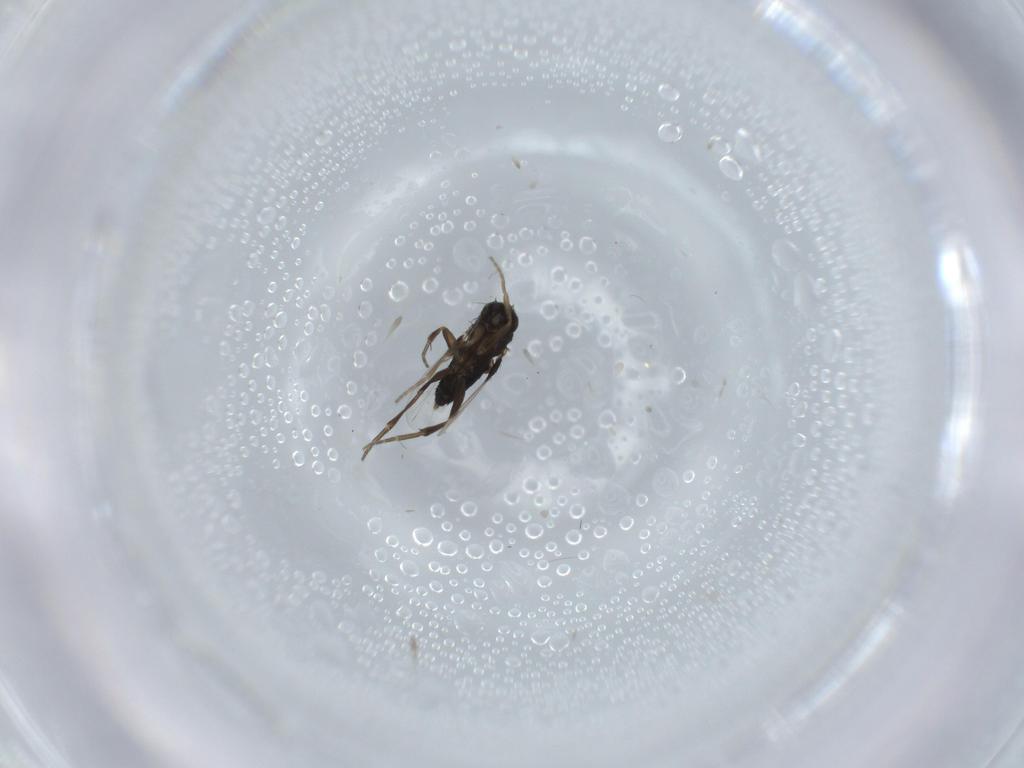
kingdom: Animalia
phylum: Arthropoda
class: Insecta
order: Diptera
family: Phoridae
